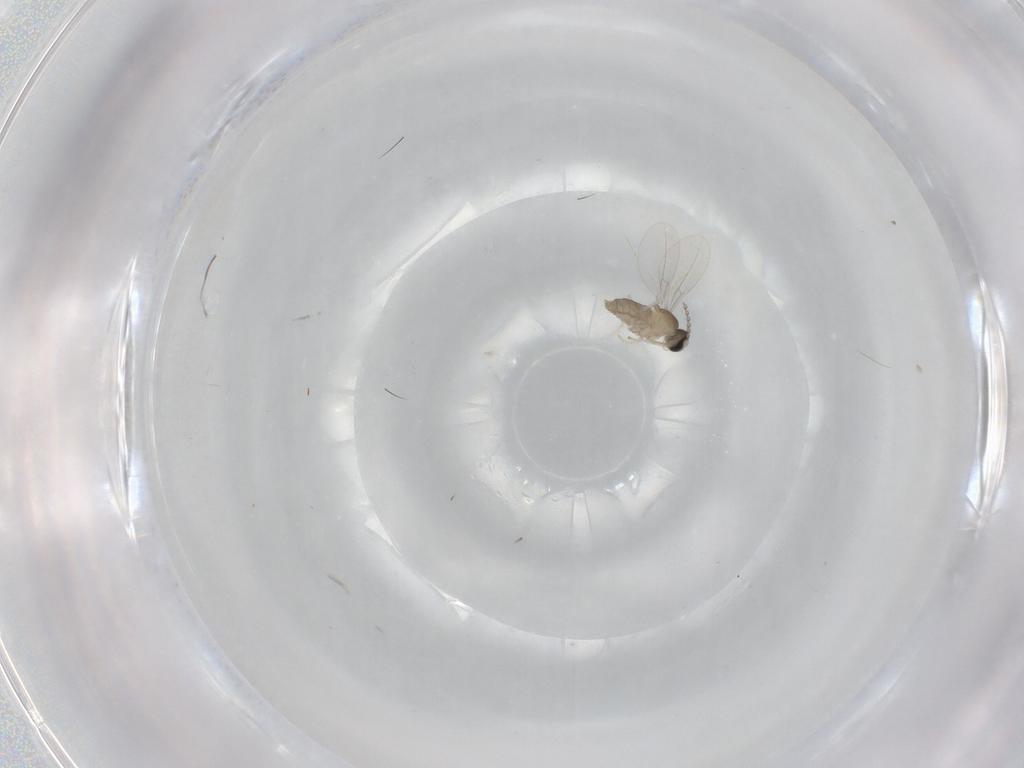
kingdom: Animalia
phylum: Arthropoda
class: Insecta
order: Diptera
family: Cecidomyiidae
